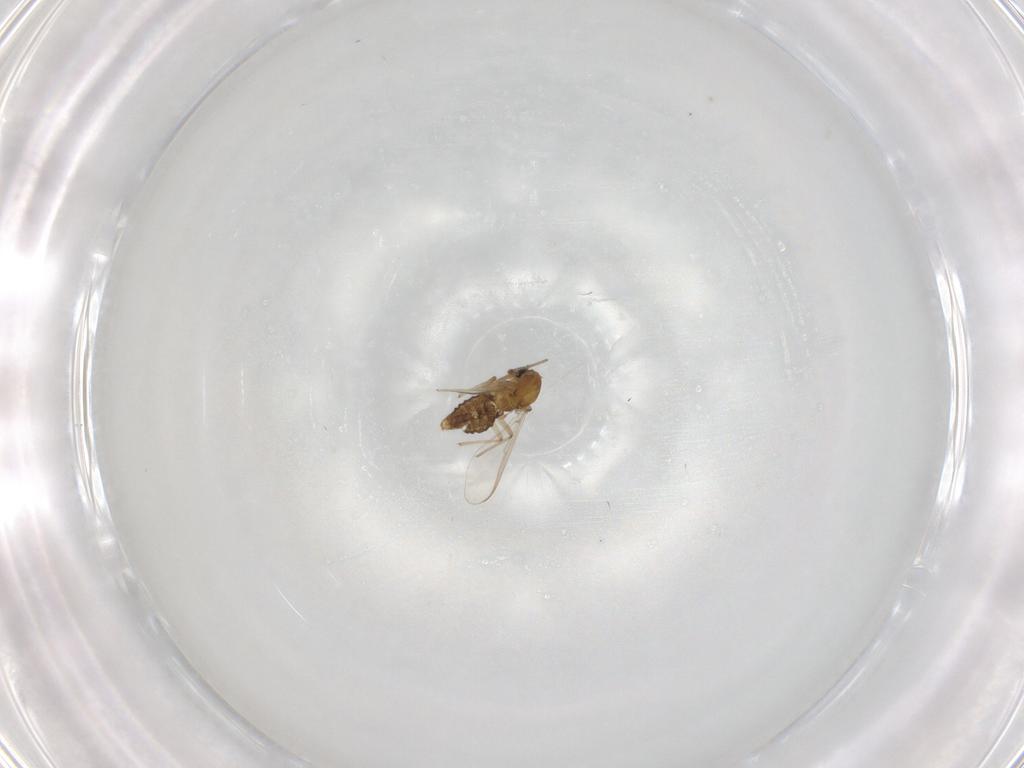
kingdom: Animalia
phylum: Arthropoda
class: Insecta
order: Diptera
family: Chironomidae
